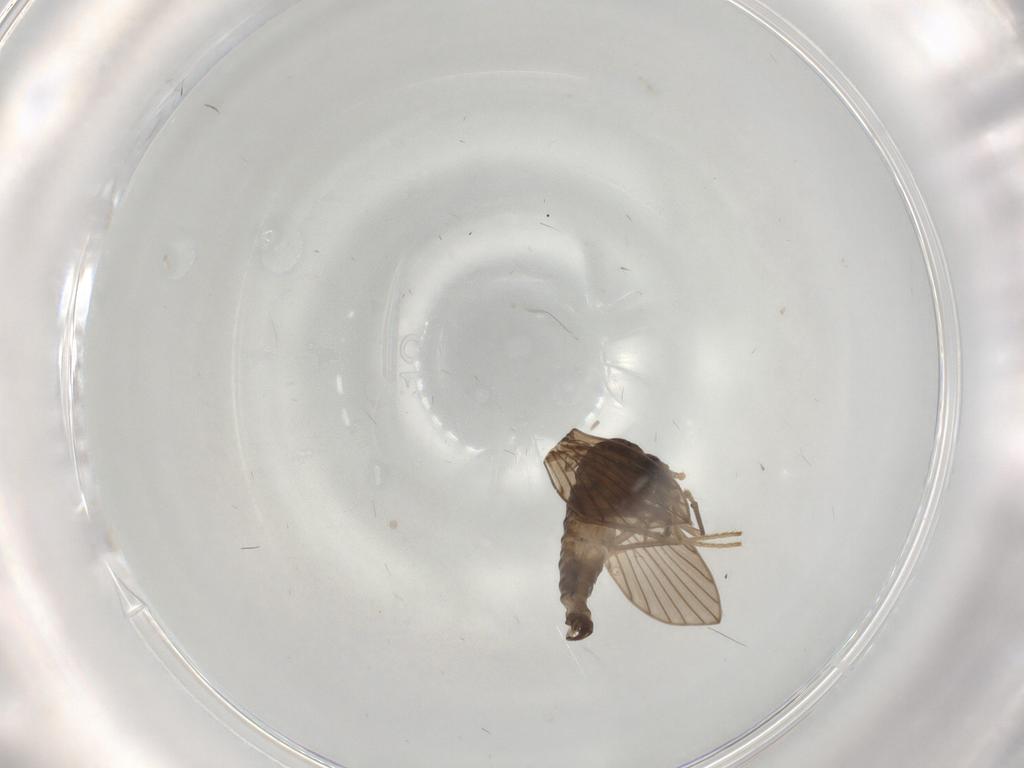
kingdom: Animalia
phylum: Arthropoda
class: Insecta
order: Diptera
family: Psychodidae
